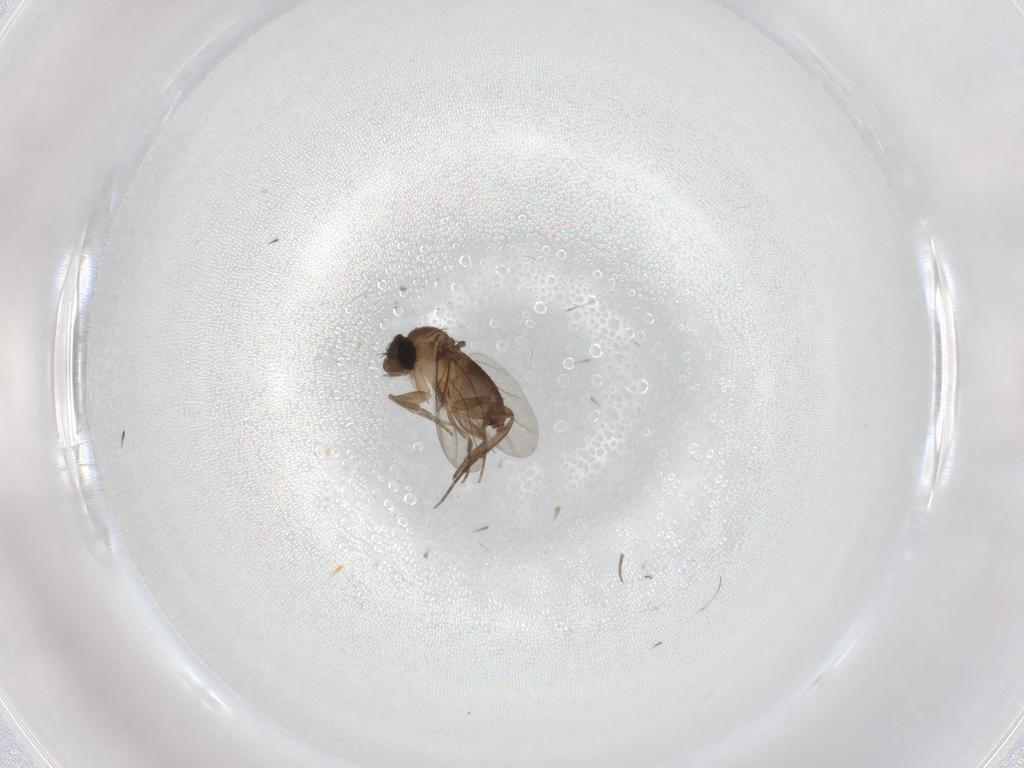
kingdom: Animalia
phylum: Arthropoda
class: Insecta
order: Diptera
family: Phoridae
